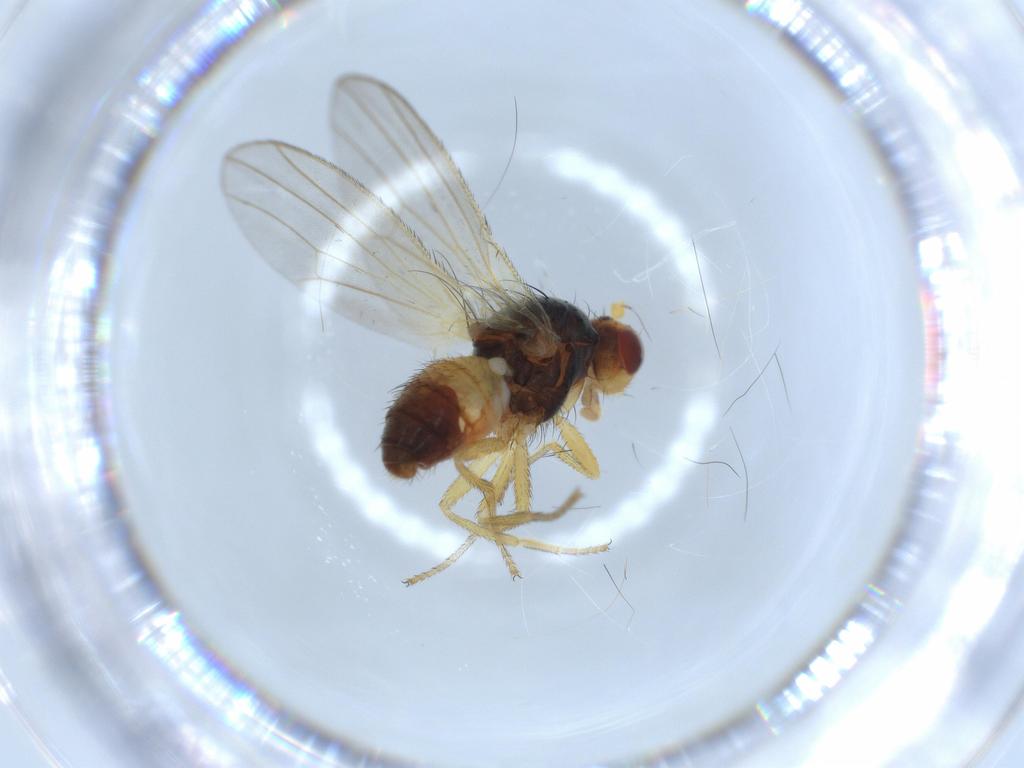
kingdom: Animalia
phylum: Arthropoda
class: Insecta
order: Diptera
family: Heleomyzidae
